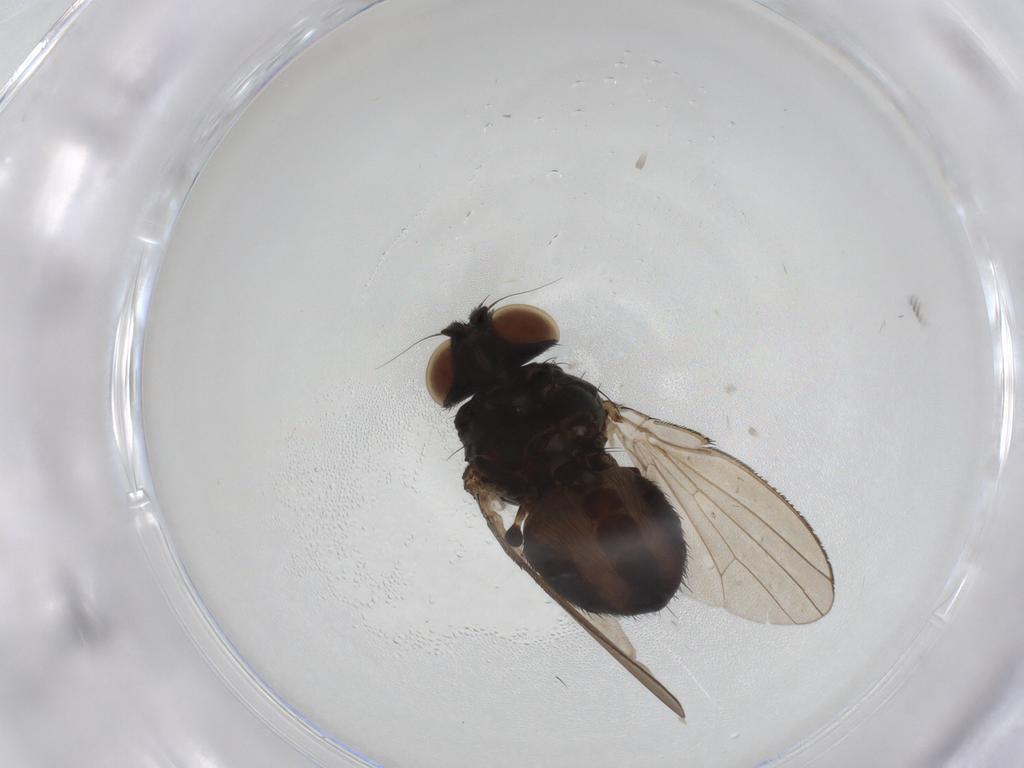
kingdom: Animalia
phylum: Arthropoda
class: Insecta
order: Diptera
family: Milichiidae
